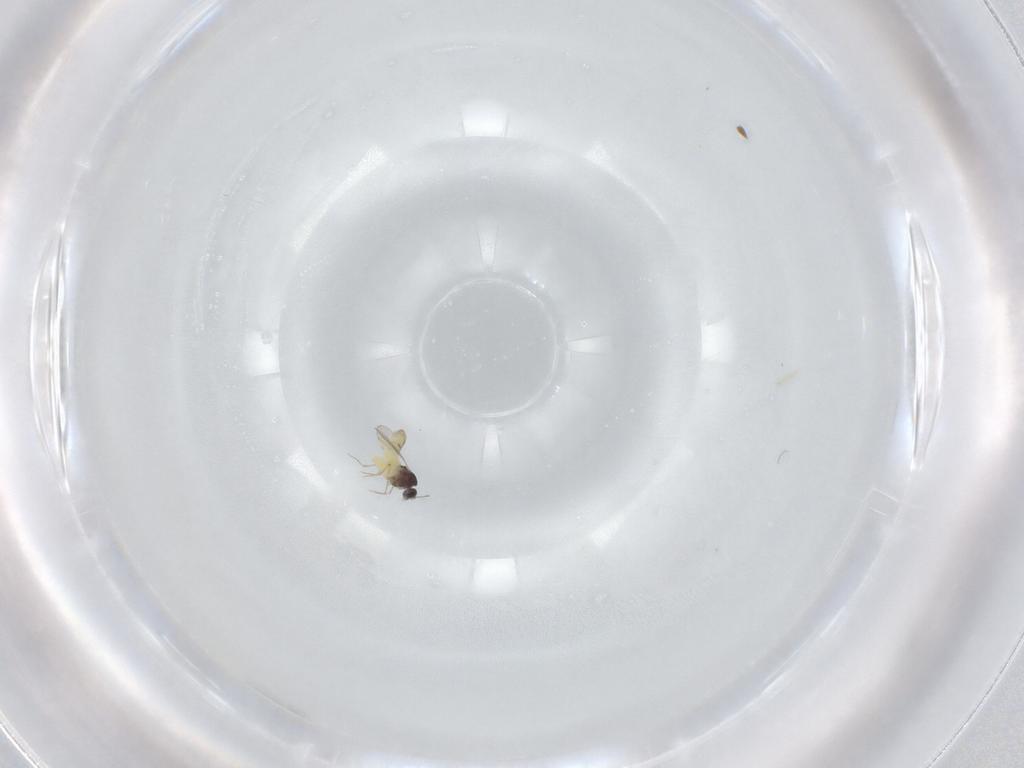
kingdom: Animalia
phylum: Arthropoda
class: Insecta
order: Diptera
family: Chironomidae
